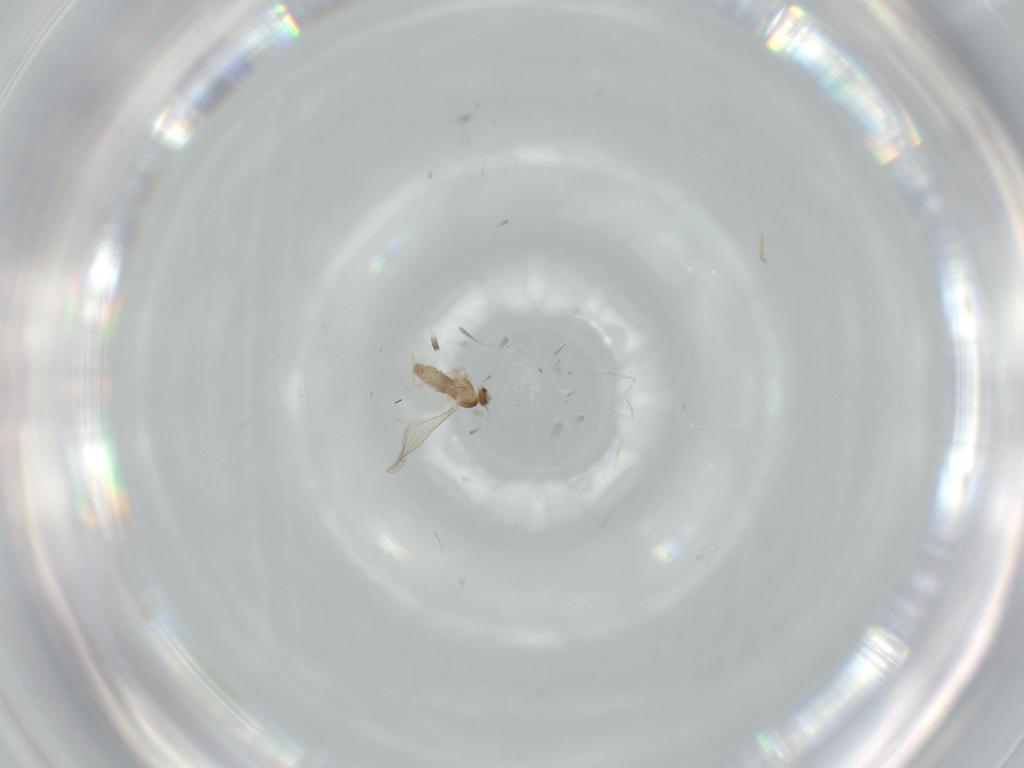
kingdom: Animalia
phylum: Arthropoda
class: Insecta
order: Diptera
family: Cecidomyiidae
